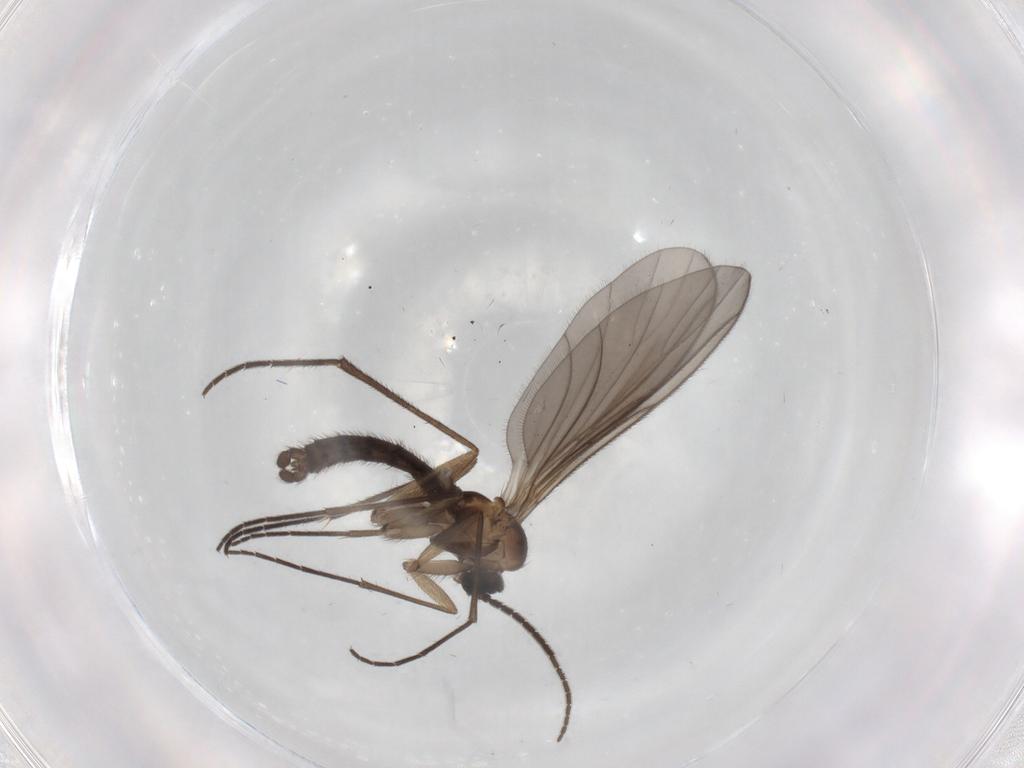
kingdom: Animalia
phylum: Arthropoda
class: Insecta
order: Diptera
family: Sciaridae
